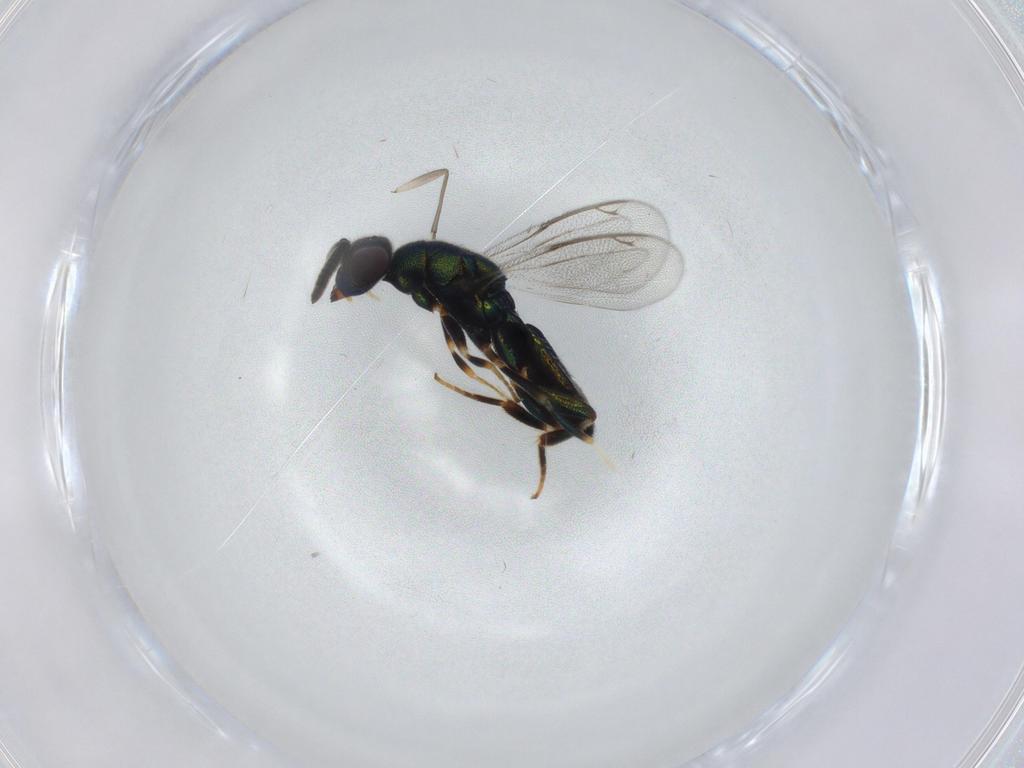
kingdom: Animalia
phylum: Arthropoda
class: Insecta
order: Hymenoptera
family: Cleonyminae
